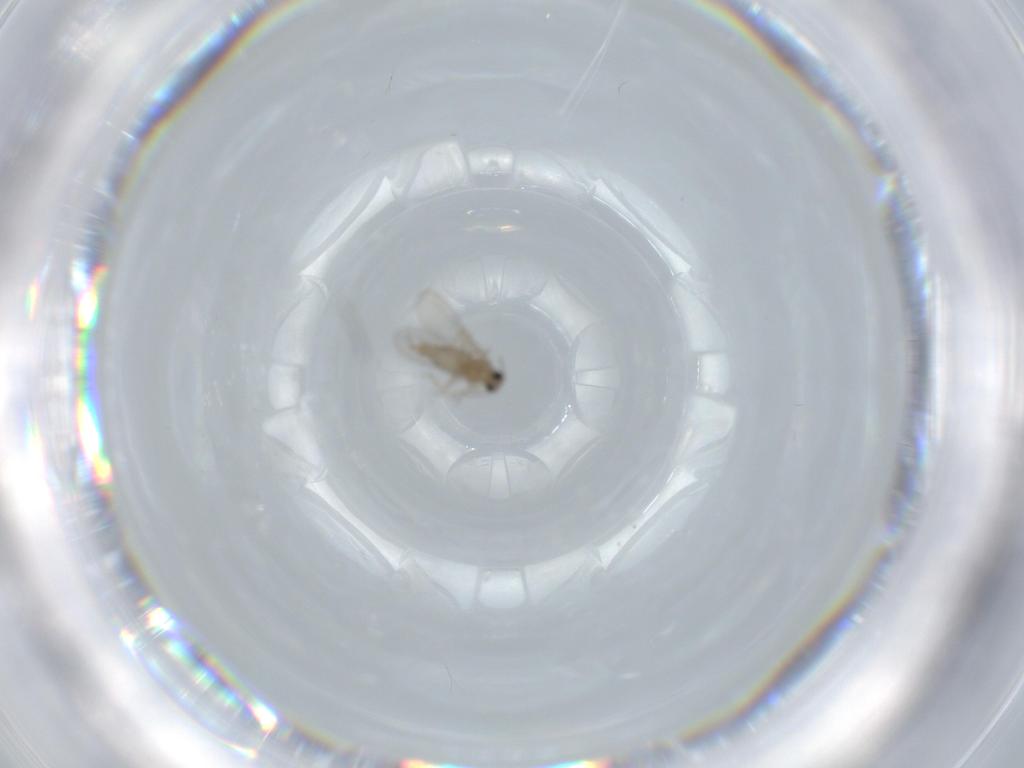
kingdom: Animalia
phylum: Arthropoda
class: Insecta
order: Diptera
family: Cecidomyiidae
